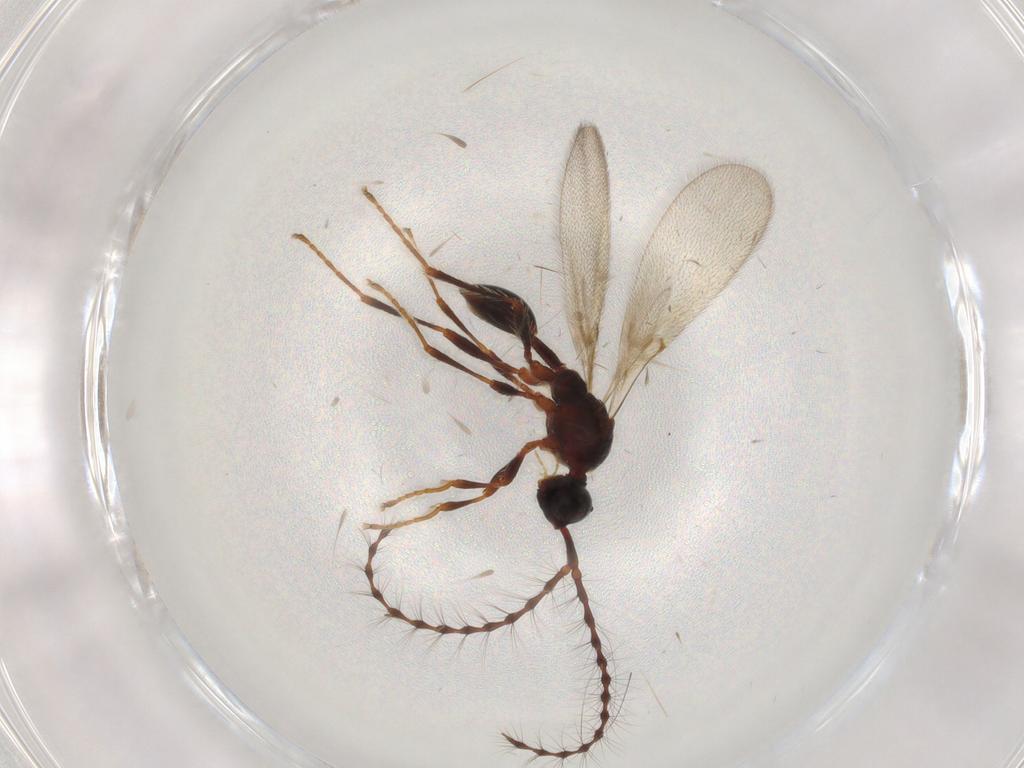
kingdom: Animalia
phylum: Arthropoda
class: Insecta
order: Hymenoptera
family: Diapriidae
